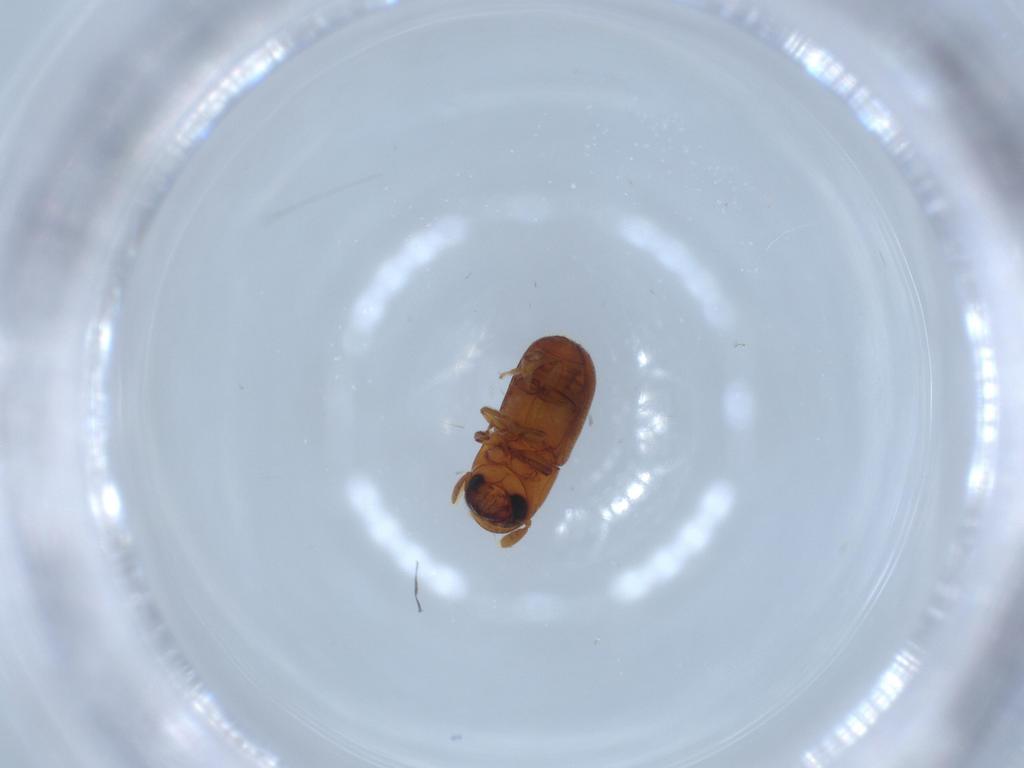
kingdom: Animalia
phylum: Arthropoda
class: Insecta
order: Coleoptera
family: Curculionidae
